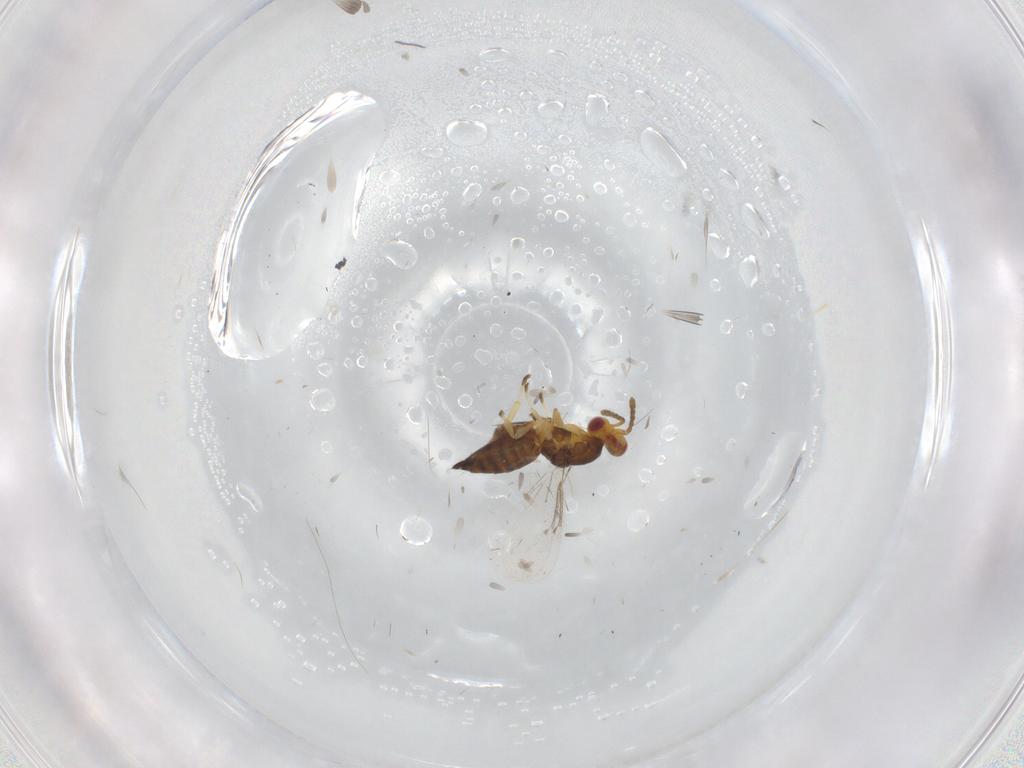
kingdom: Animalia
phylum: Arthropoda
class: Insecta
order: Hymenoptera
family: Eulophidae
